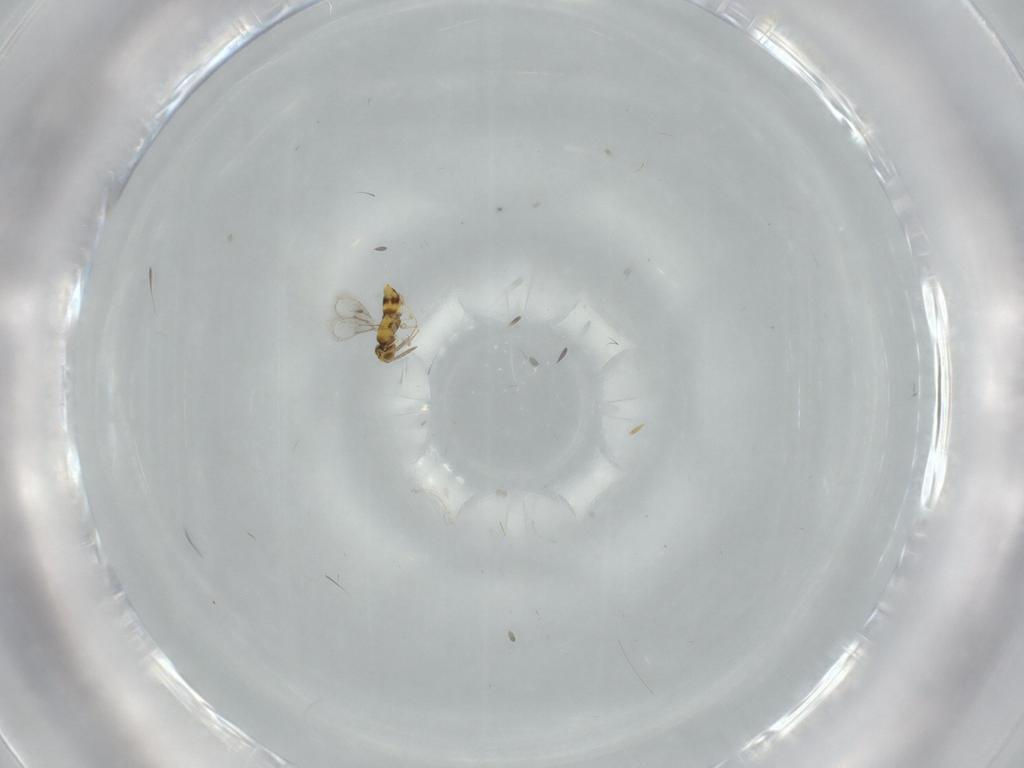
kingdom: Animalia
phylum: Arthropoda
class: Insecta
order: Hymenoptera
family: Aphelinidae
